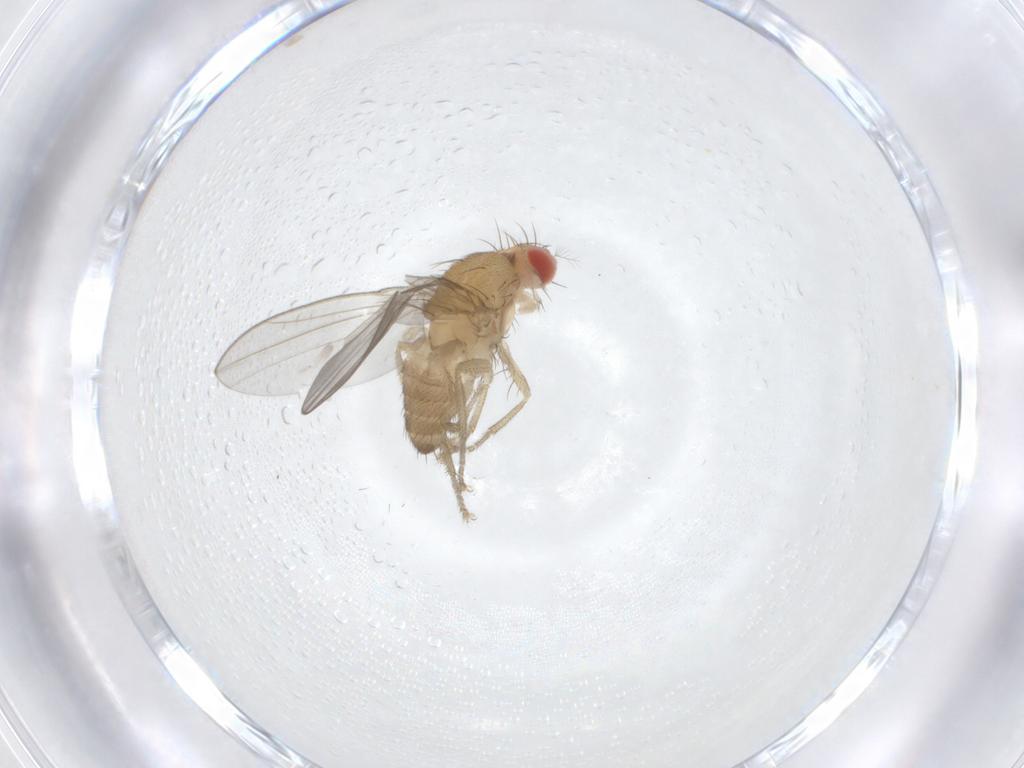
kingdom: Animalia
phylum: Arthropoda
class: Insecta
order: Diptera
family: Drosophilidae
